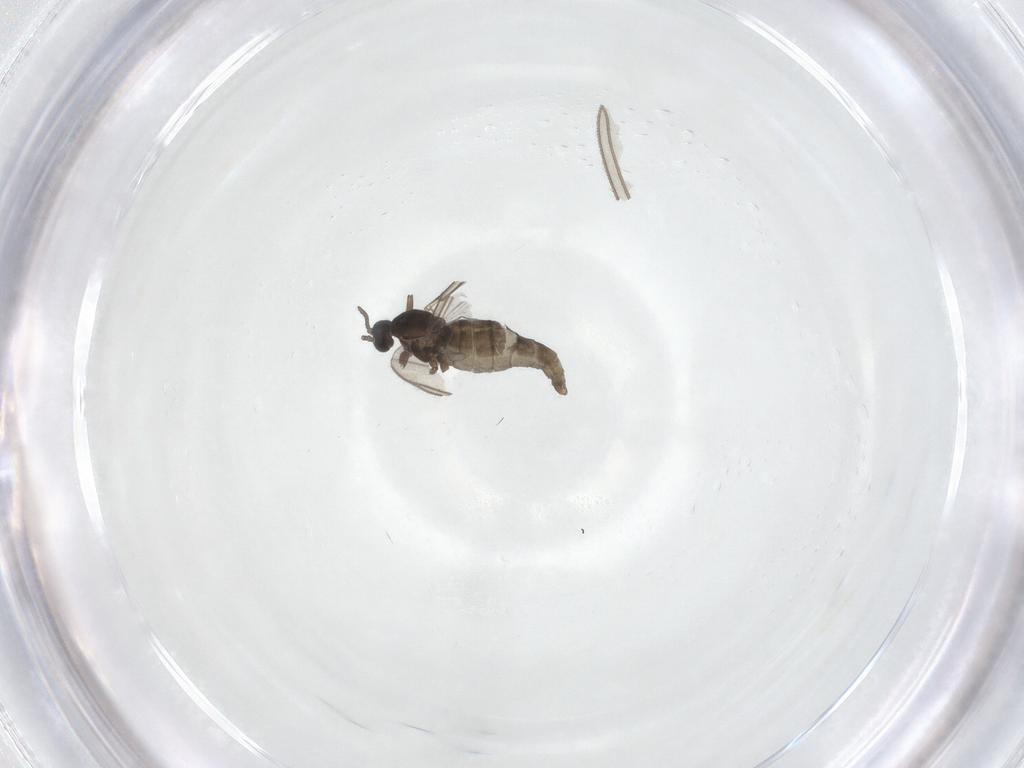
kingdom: Animalia
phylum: Arthropoda
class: Insecta
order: Diptera
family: Cecidomyiidae
